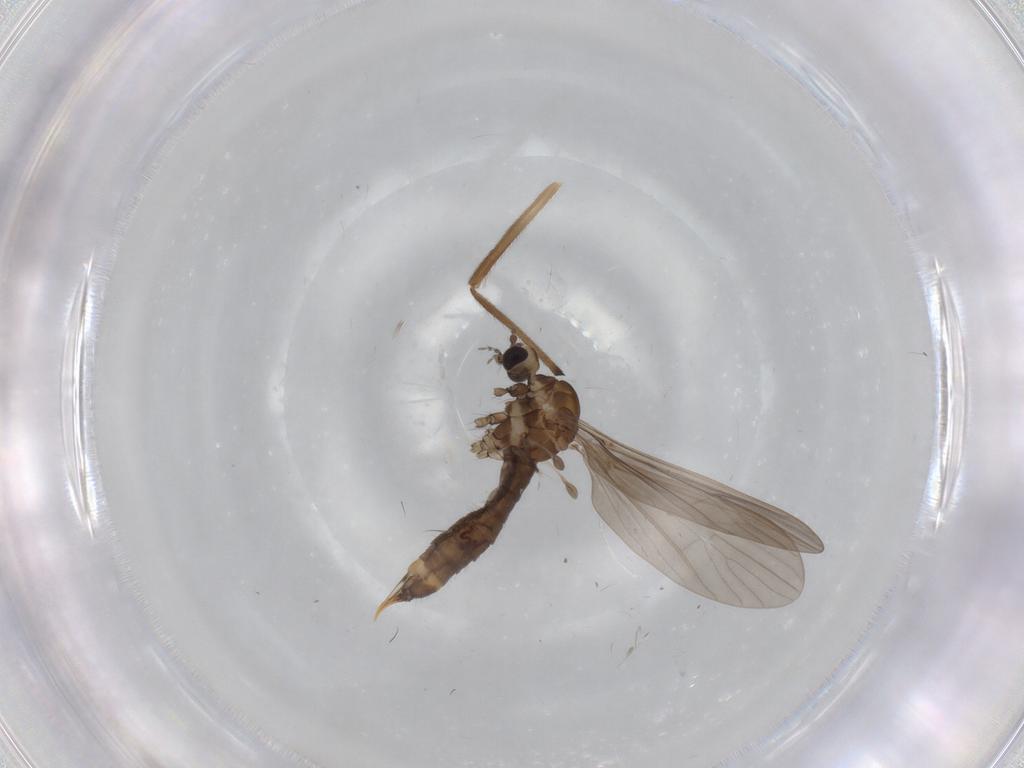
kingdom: Animalia
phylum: Arthropoda
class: Insecta
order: Diptera
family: Limoniidae
